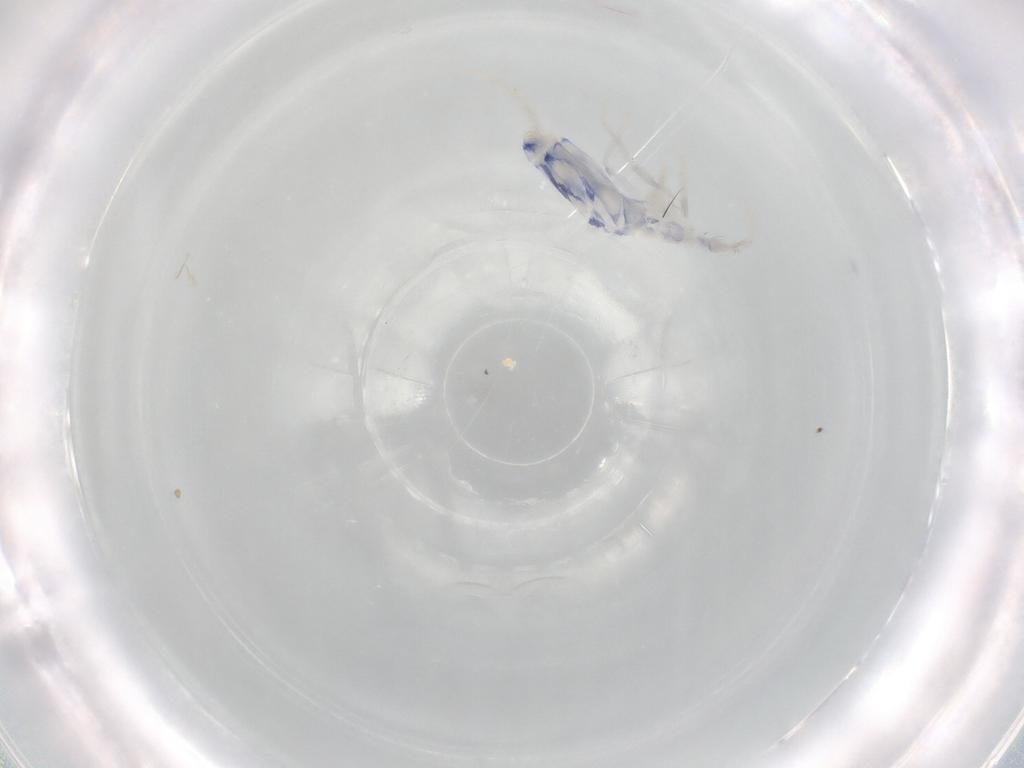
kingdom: Animalia
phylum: Arthropoda
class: Collembola
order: Entomobryomorpha
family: Entomobryidae
